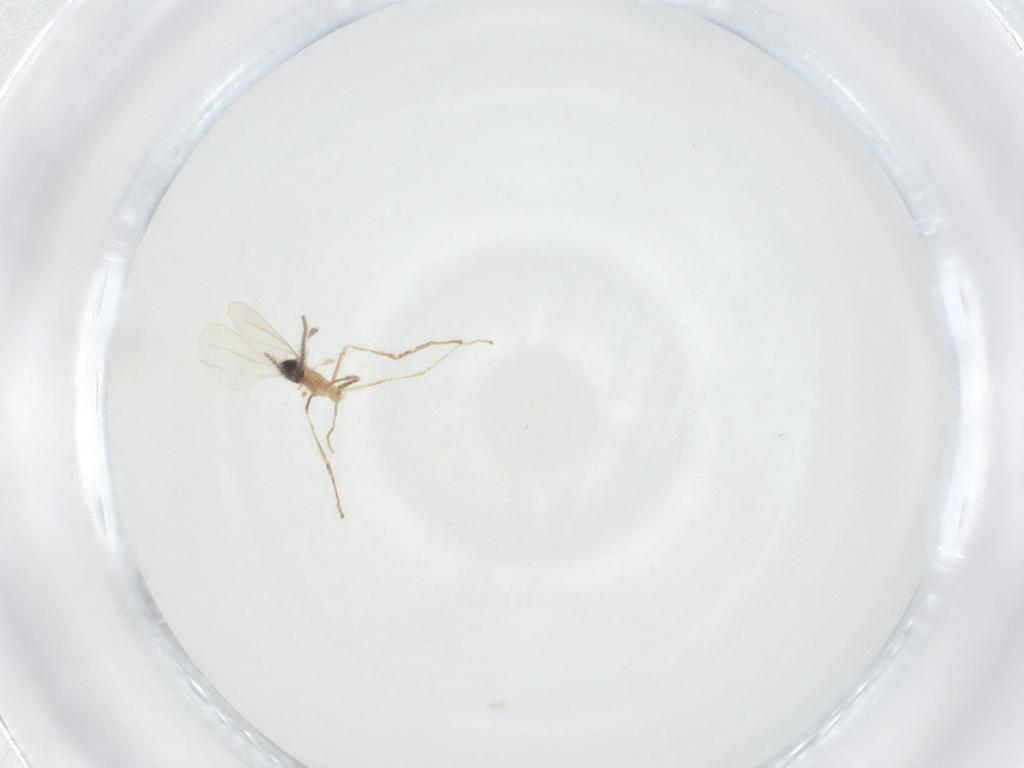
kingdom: Animalia
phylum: Arthropoda
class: Insecta
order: Diptera
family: Cecidomyiidae
